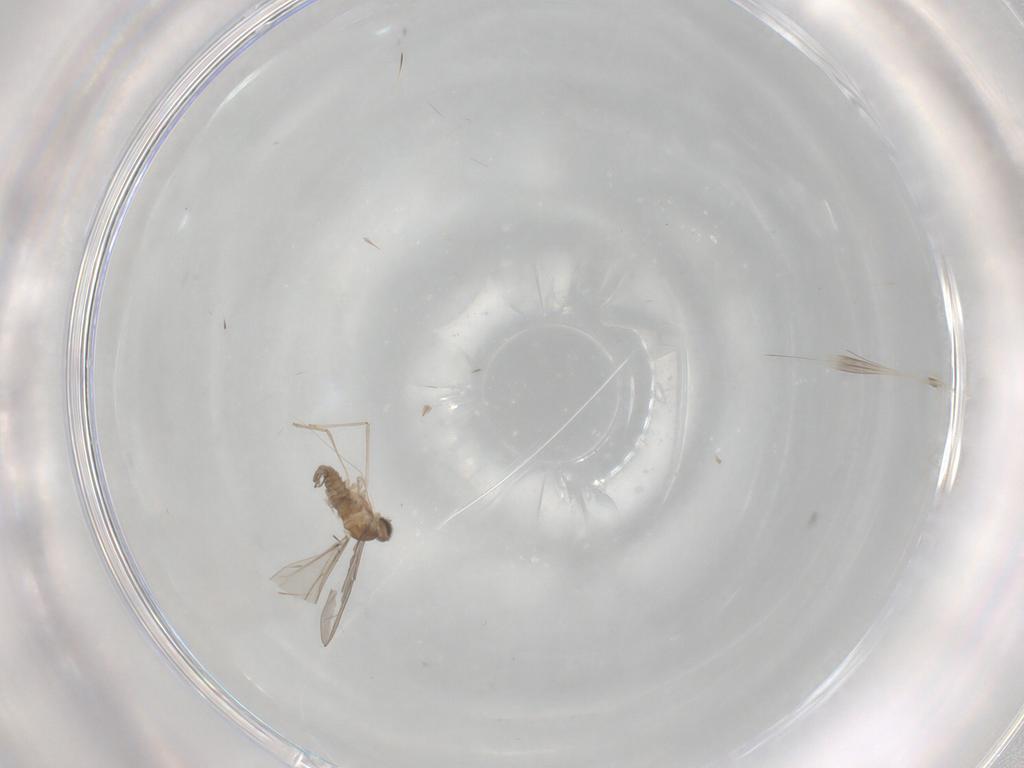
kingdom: Animalia
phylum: Arthropoda
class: Insecta
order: Diptera
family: Cecidomyiidae
